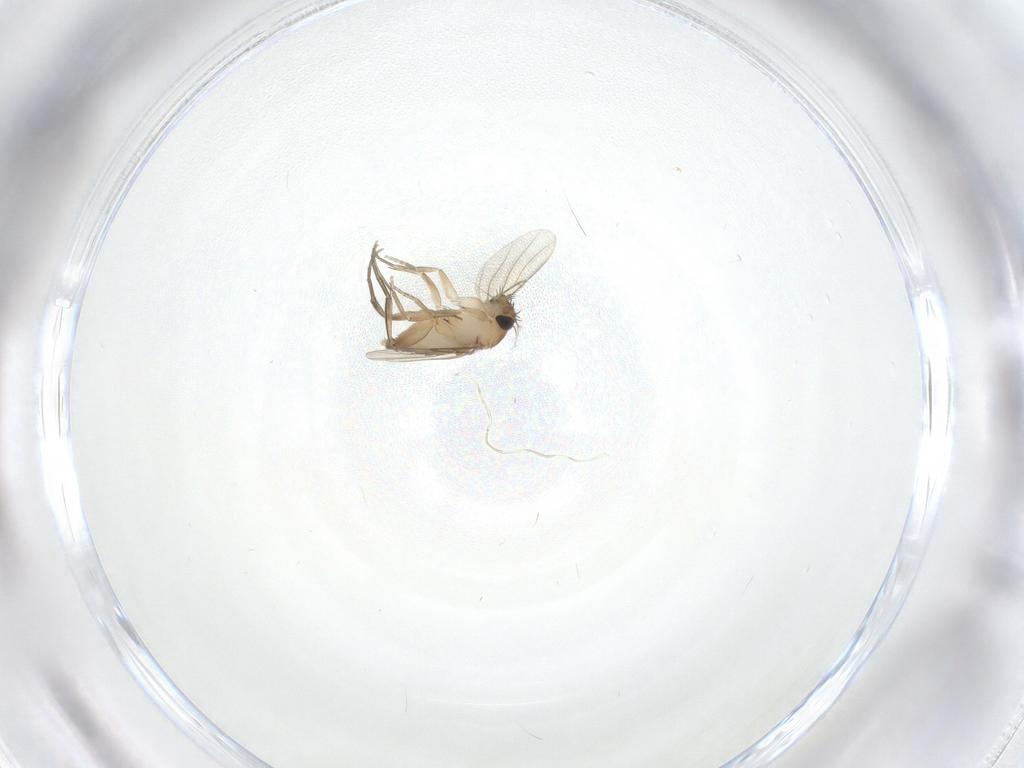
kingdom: Animalia
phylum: Arthropoda
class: Insecta
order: Diptera
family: Phoridae
